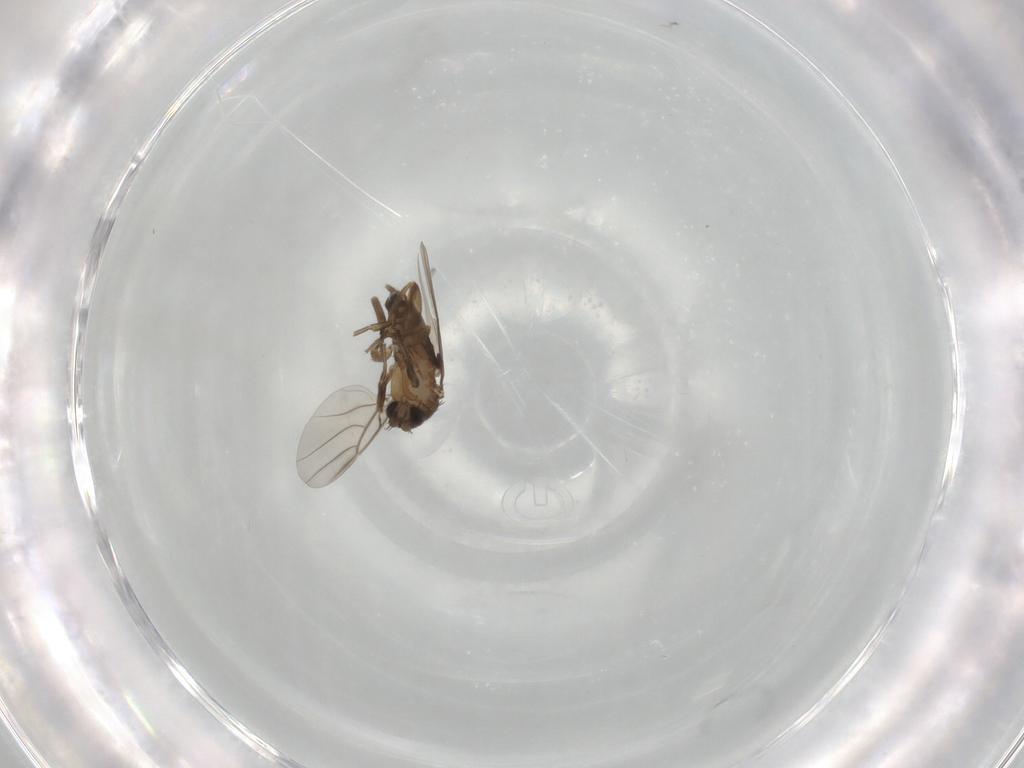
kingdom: Animalia
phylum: Arthropoda
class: Insecta
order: Diptera
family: Phoridae
